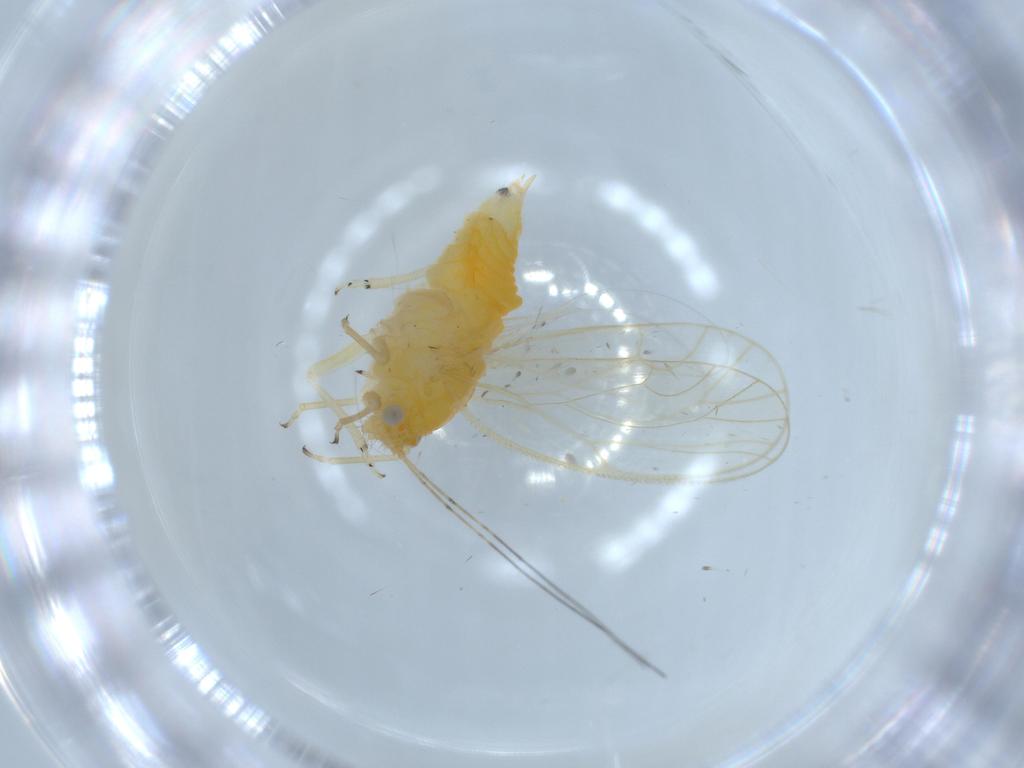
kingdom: Animalia
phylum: Arthropoda
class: Insecta
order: Hemiptera
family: Psyllidae
